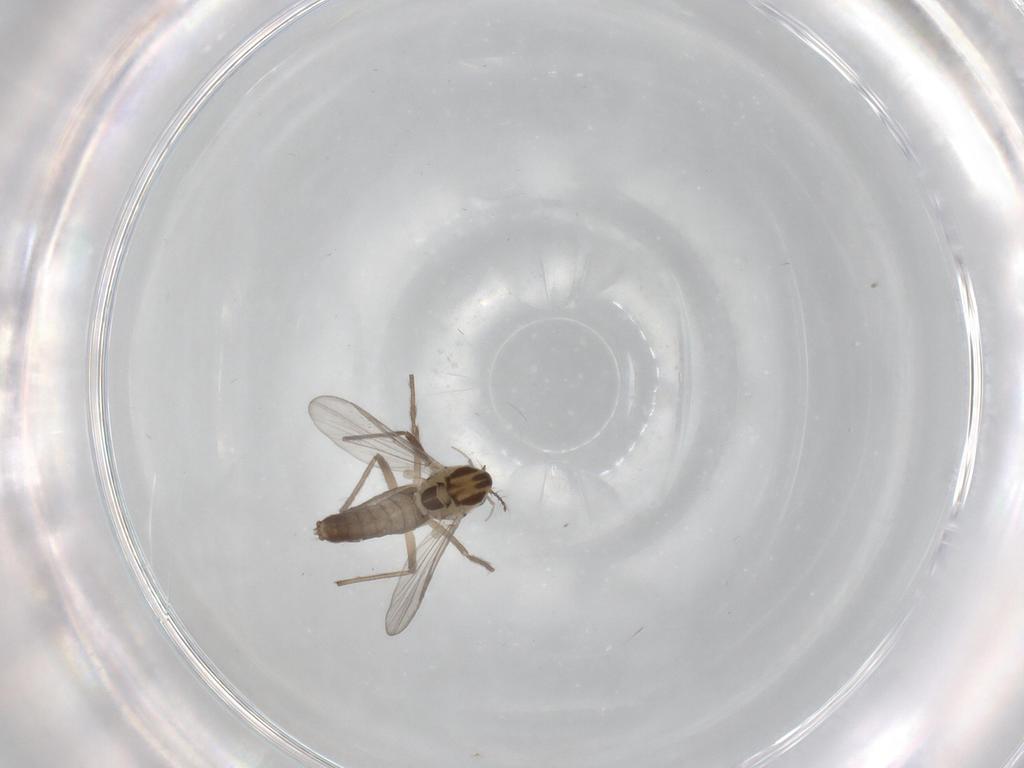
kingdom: Animalia
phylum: Arthropoda
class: Insecta
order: Diptera
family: Chironomidae
